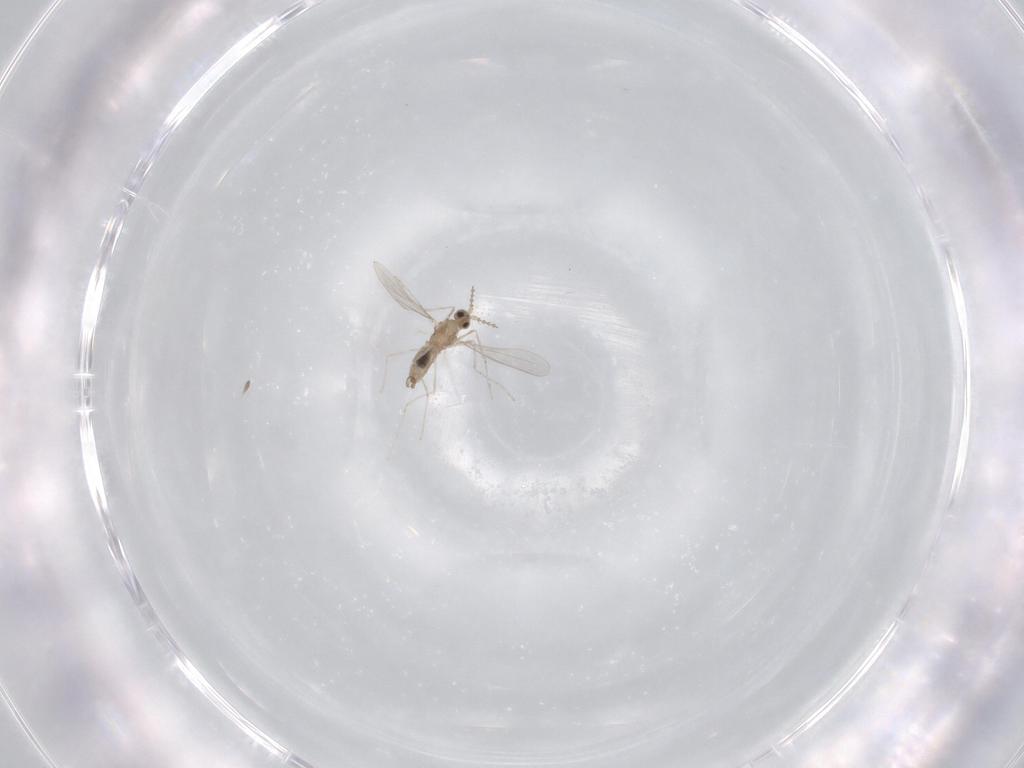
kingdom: Animalia
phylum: Arthropoda
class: Insecta
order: Diptera
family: Cecidomyiidae
